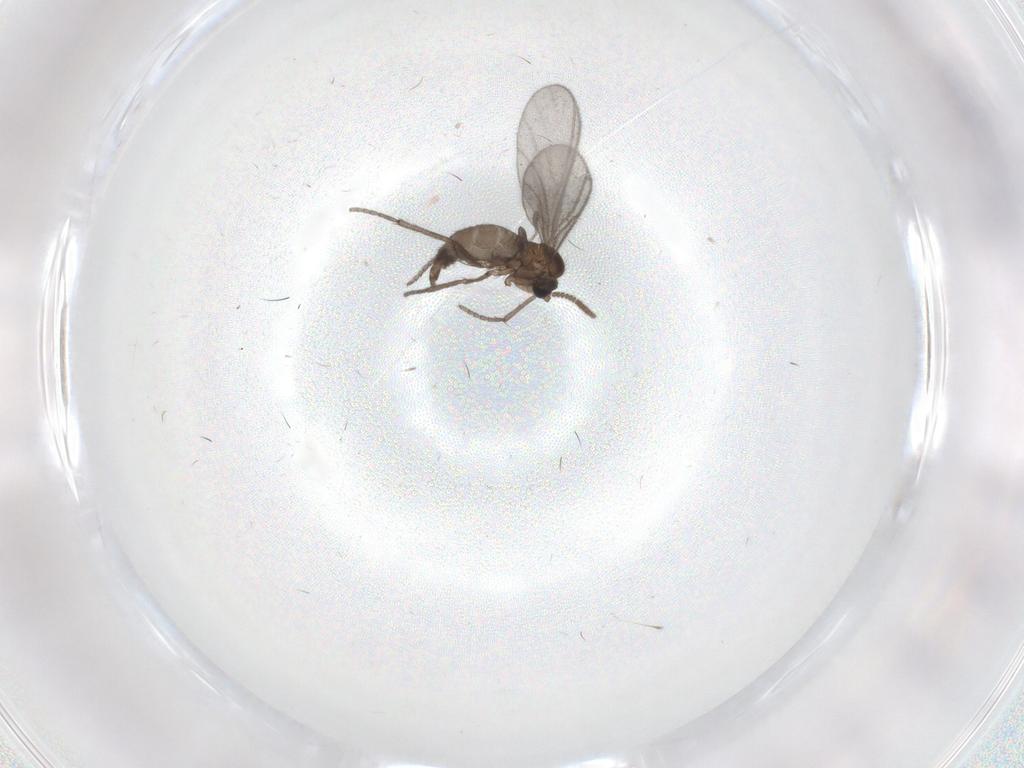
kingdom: Animalia
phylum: Arthropoda
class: Insecta
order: Diptera
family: Sciaridae
